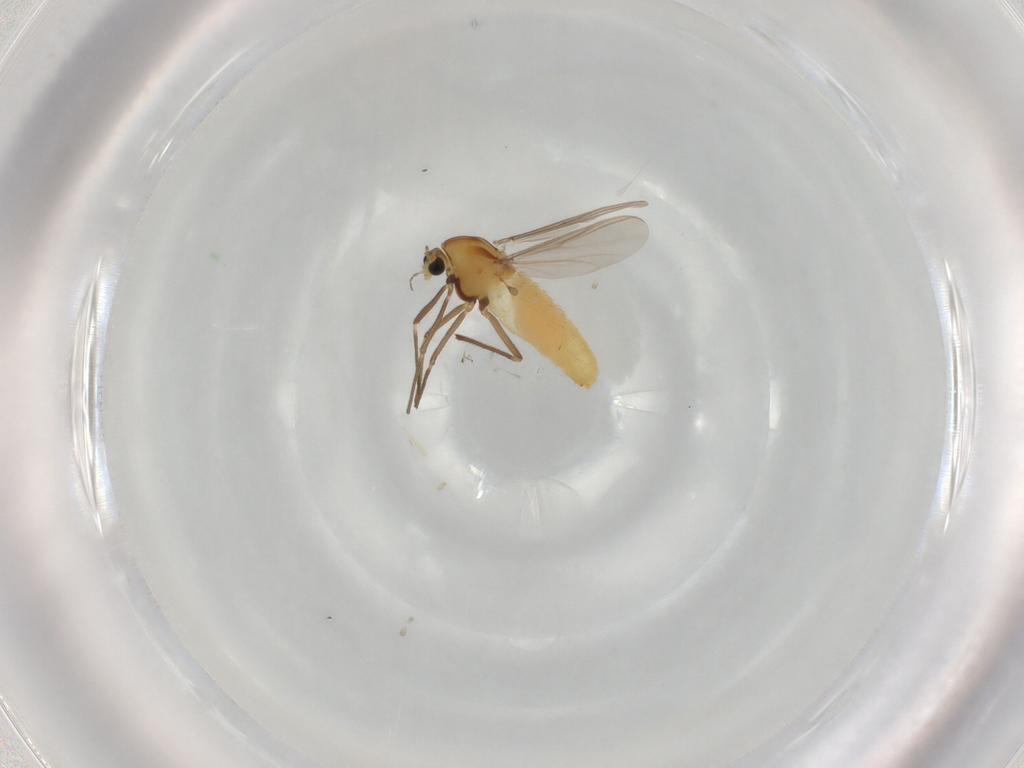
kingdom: Animalia
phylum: Arthropoda
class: Insecta
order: Diptera
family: Chironomidae
